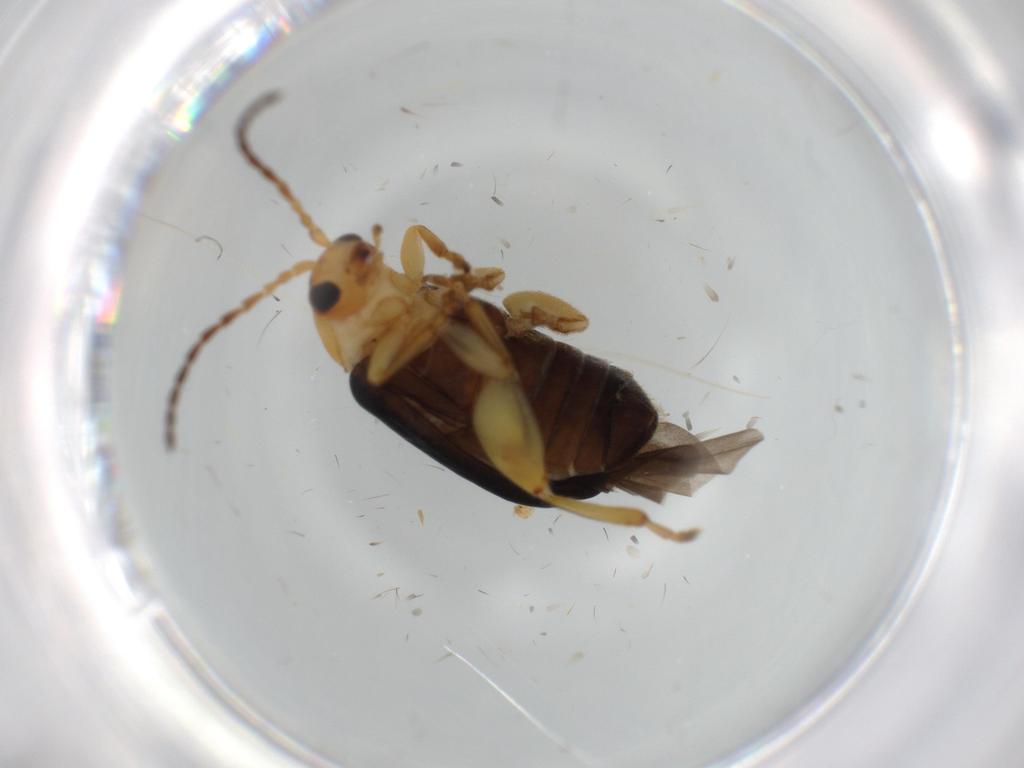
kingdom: Animalia
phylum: Arthropoda
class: Insecta
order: Coleoptera
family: Chrysomelidae
